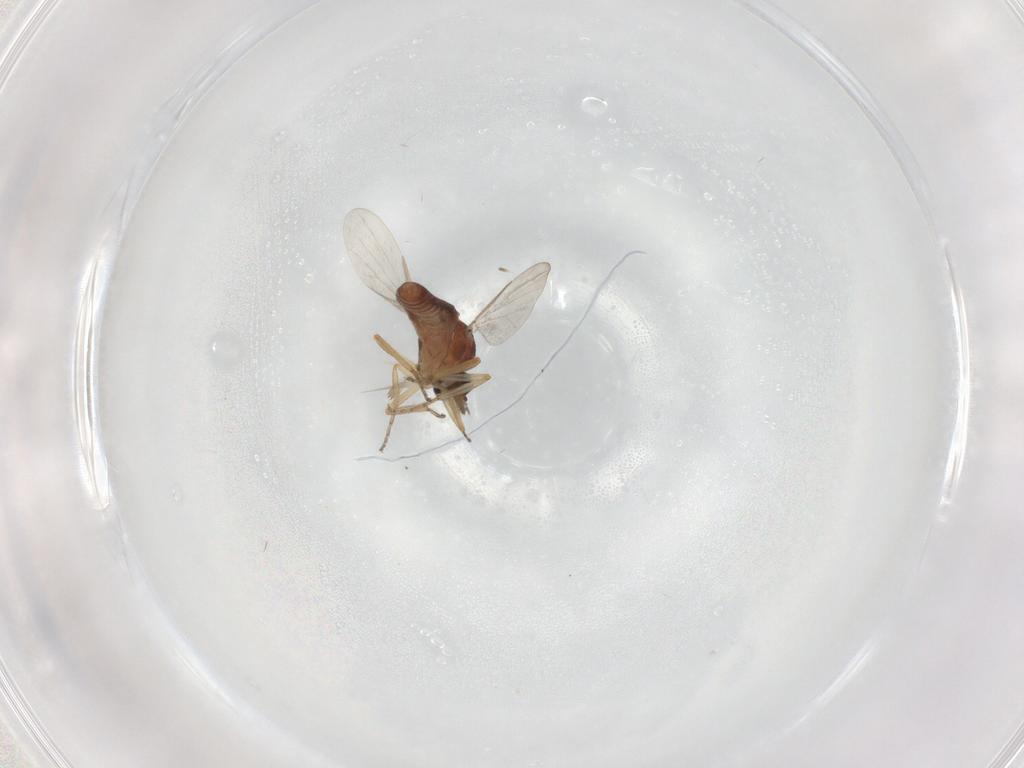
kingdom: Animalia
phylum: Arthropoda
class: Insecta
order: Diptera
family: Ceratopogonidae
